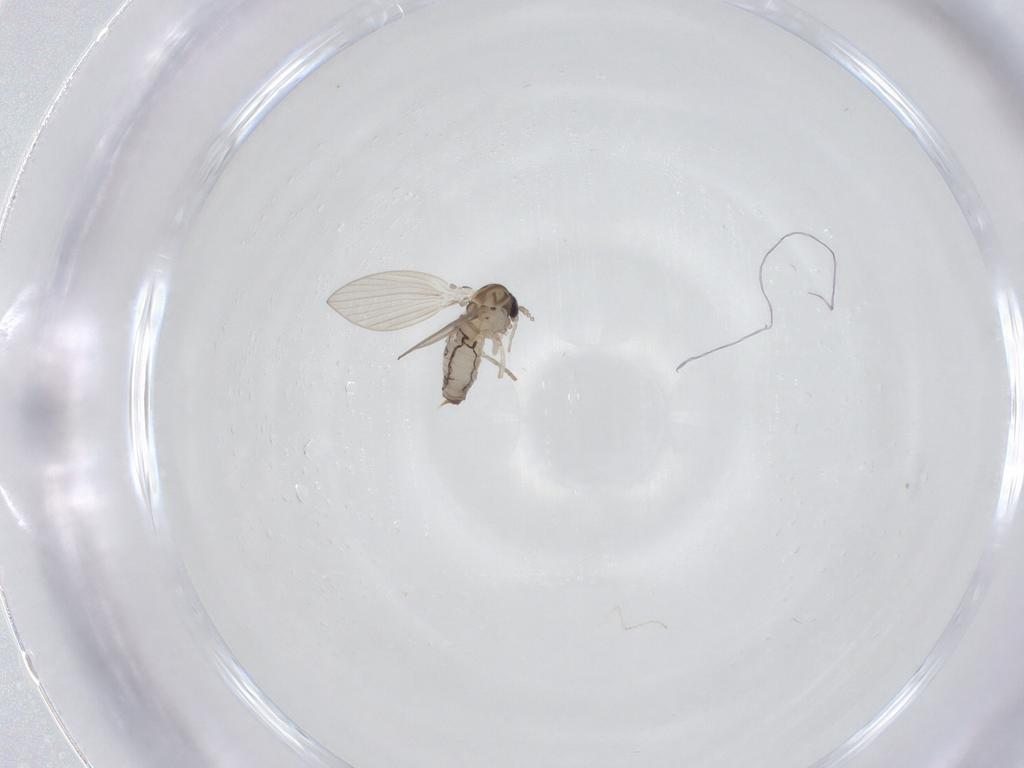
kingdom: Animalia
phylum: Arthropoda
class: Insecta
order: Diptera
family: Psychodidae
